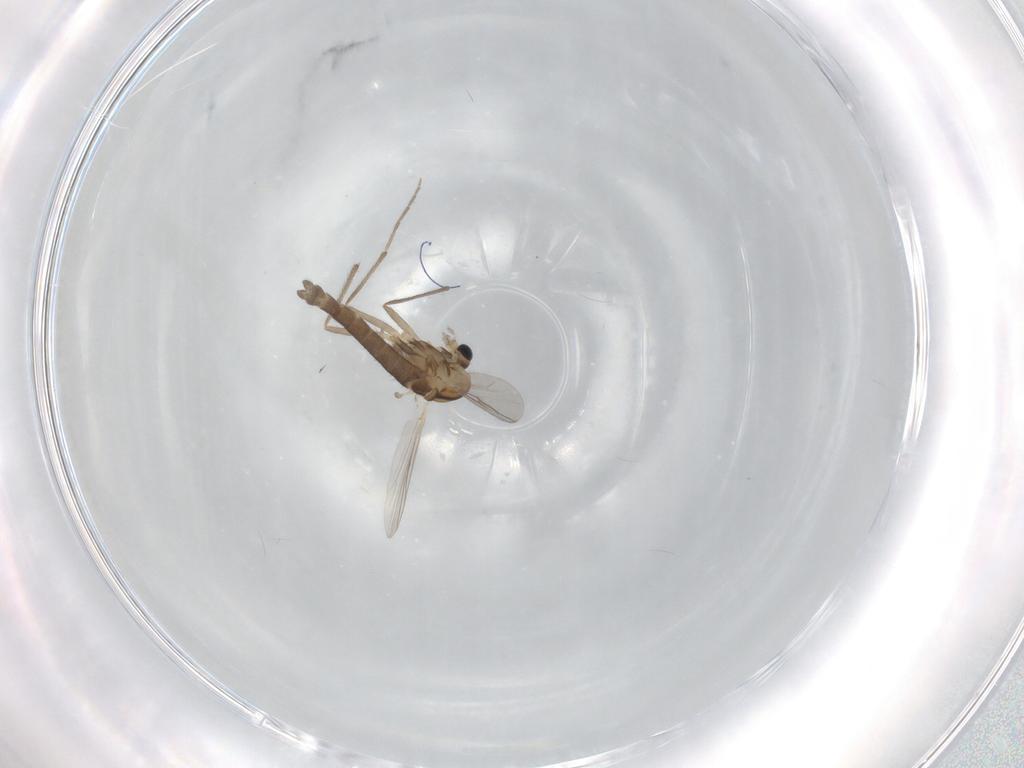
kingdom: Animalia
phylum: Arthropoda
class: Insecta
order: Diptera
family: Chironomidae
